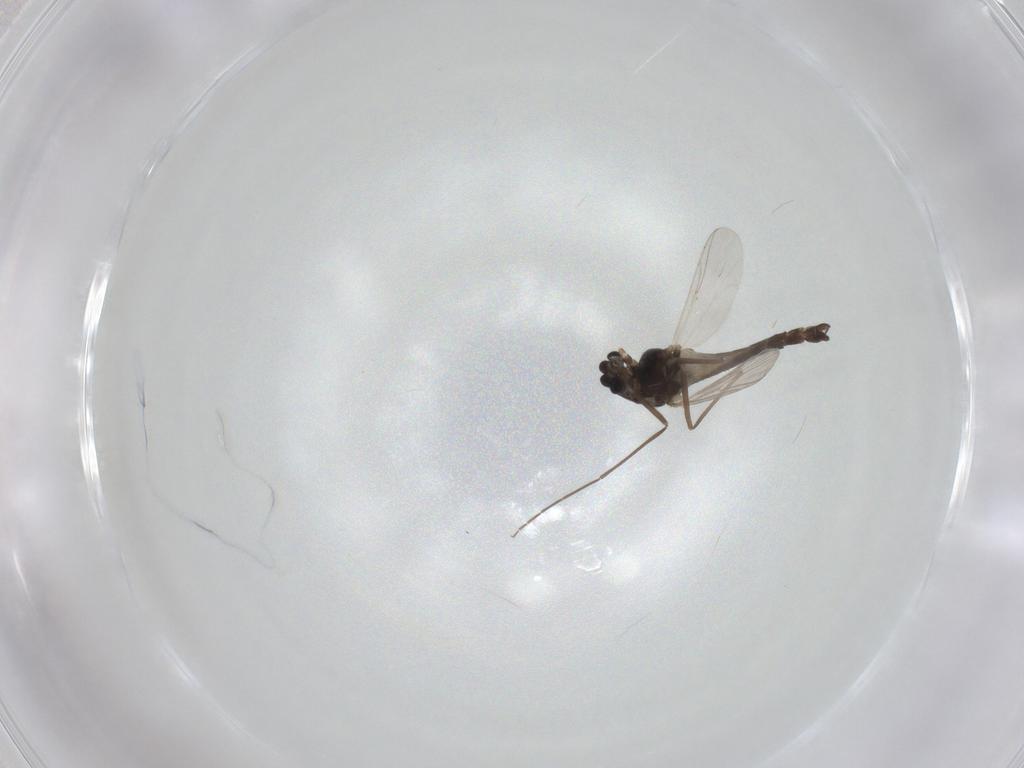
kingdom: Animalia
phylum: Arthropoda
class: Insecta
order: Diptera
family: Chironomidae
